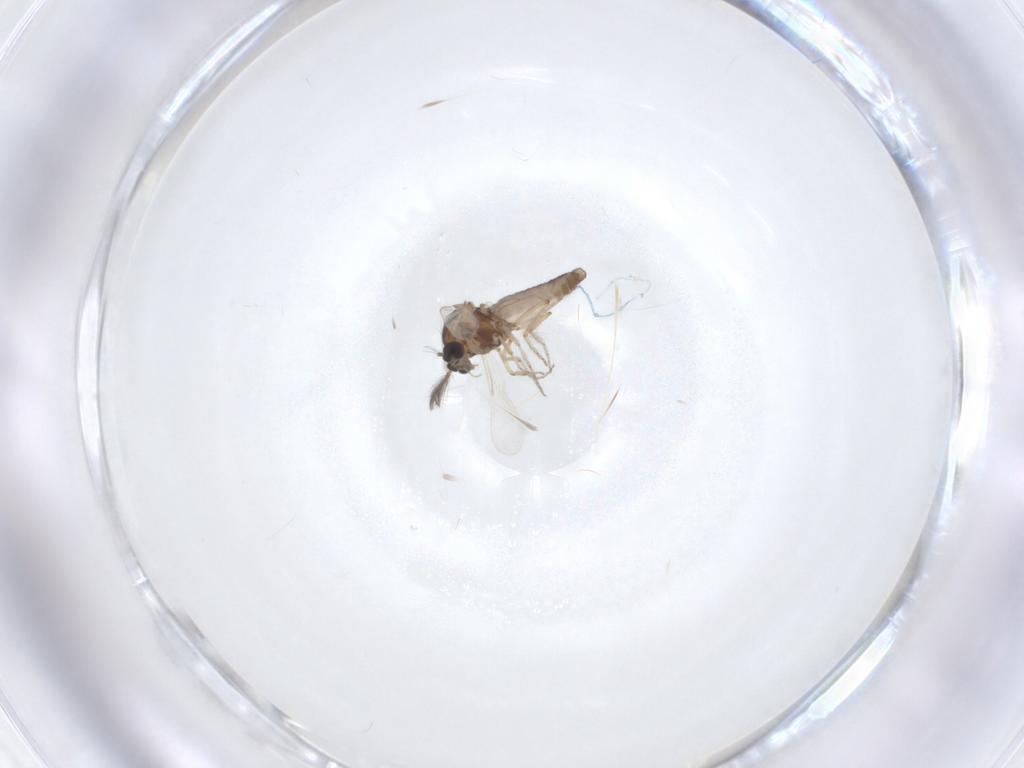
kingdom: Animalia
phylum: Arthropoda
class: Insecta
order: Diptera
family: Ceratopogonidae
